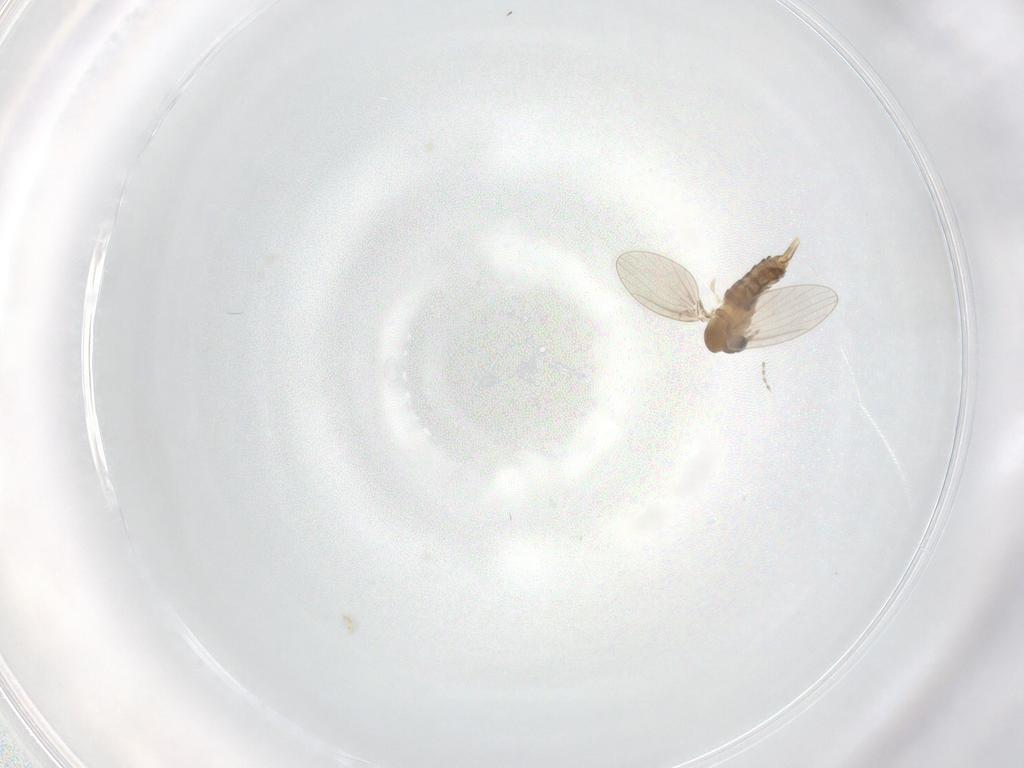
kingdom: Animalia
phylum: Arthropoda
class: Insecta
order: Diptera
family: Psychodidae
